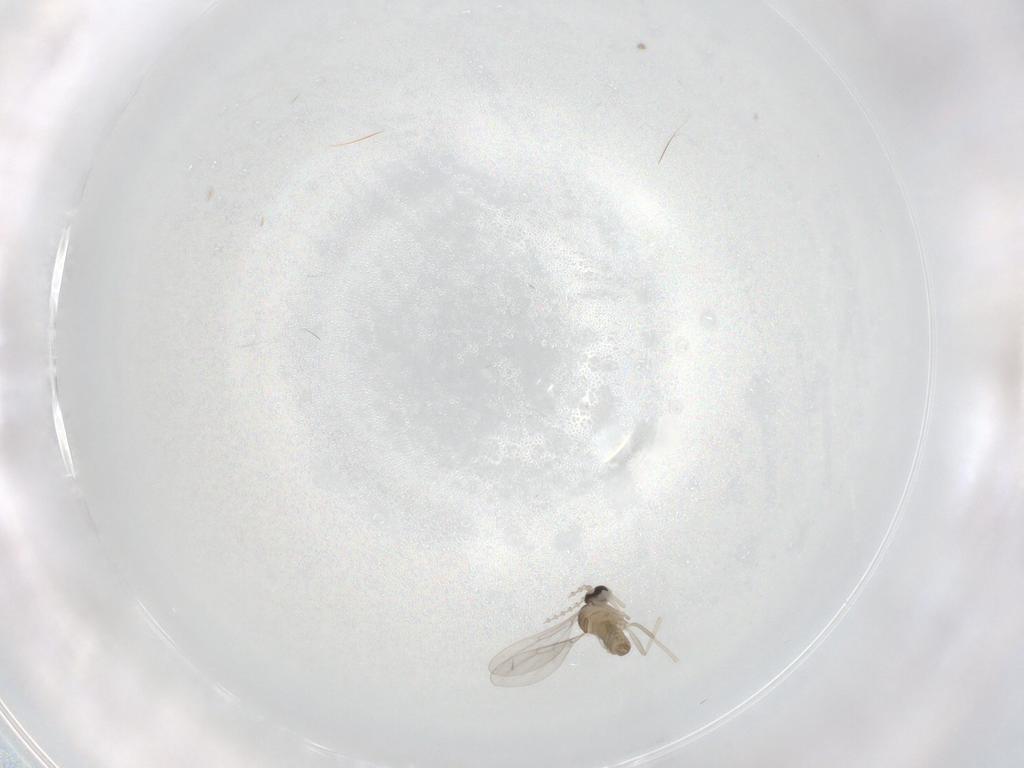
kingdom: Animalia
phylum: Arthropoda
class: Insecta
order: Diptera
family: Cecidomyiidae
